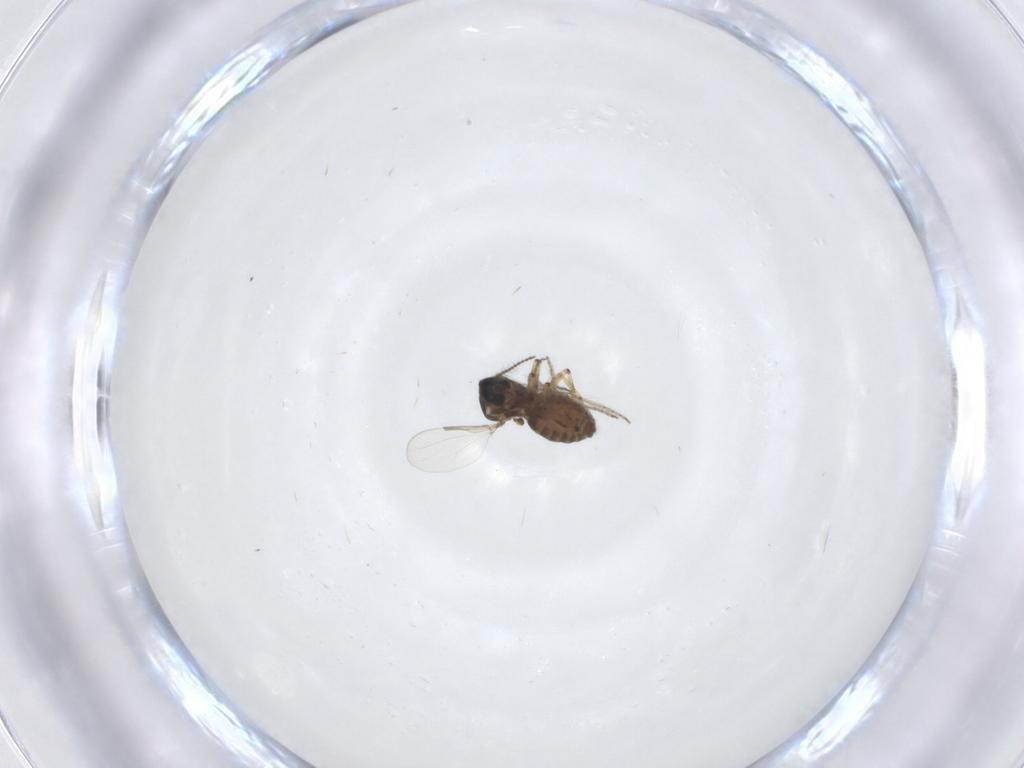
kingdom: Animalia
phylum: Arthropoda
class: Insecta
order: Diptera
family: Ceratopogonidae
